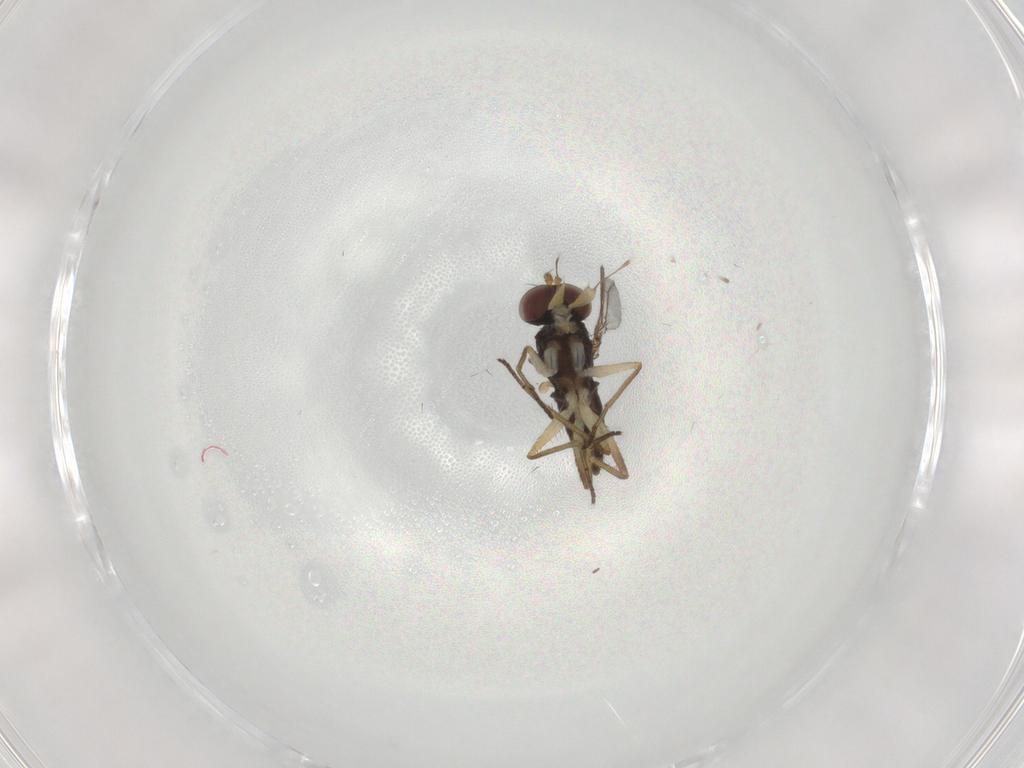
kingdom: Animalia
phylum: Arthropoda
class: Insecta
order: Diptera
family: Dolichopodidae
